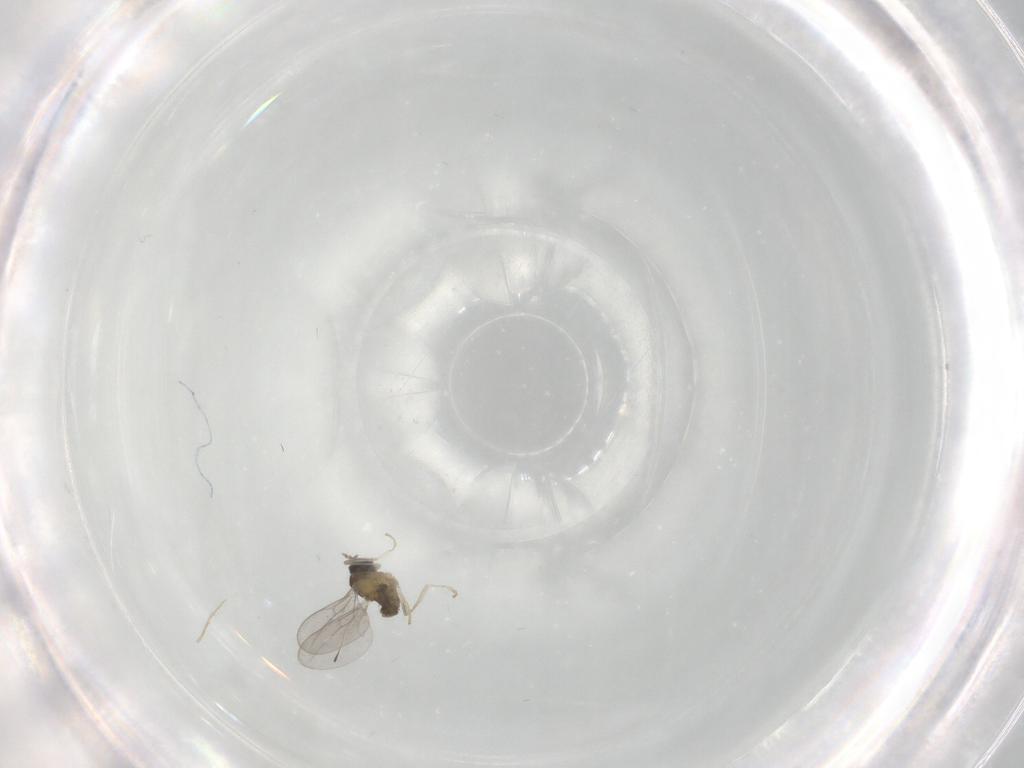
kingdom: Animalia
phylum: Arthropoda
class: Insecta
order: Diptera
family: Cecidomyiidae
